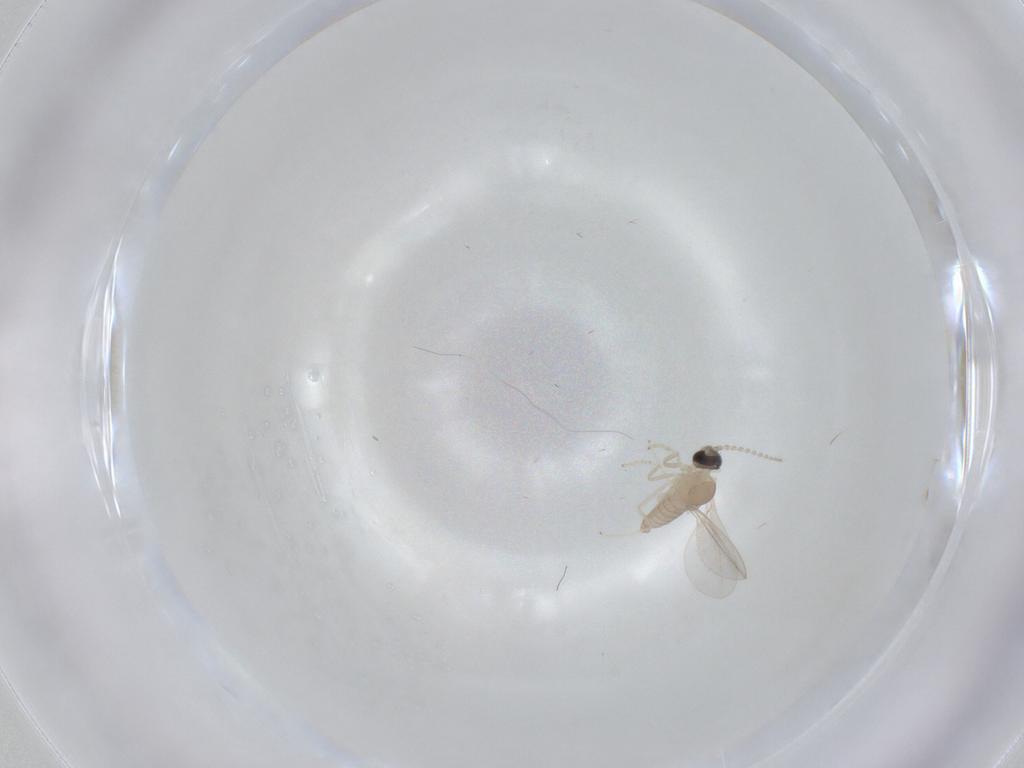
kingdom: Animalia
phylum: Arthropoda
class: Insecta
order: Diptera
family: Cecidomyiidae
